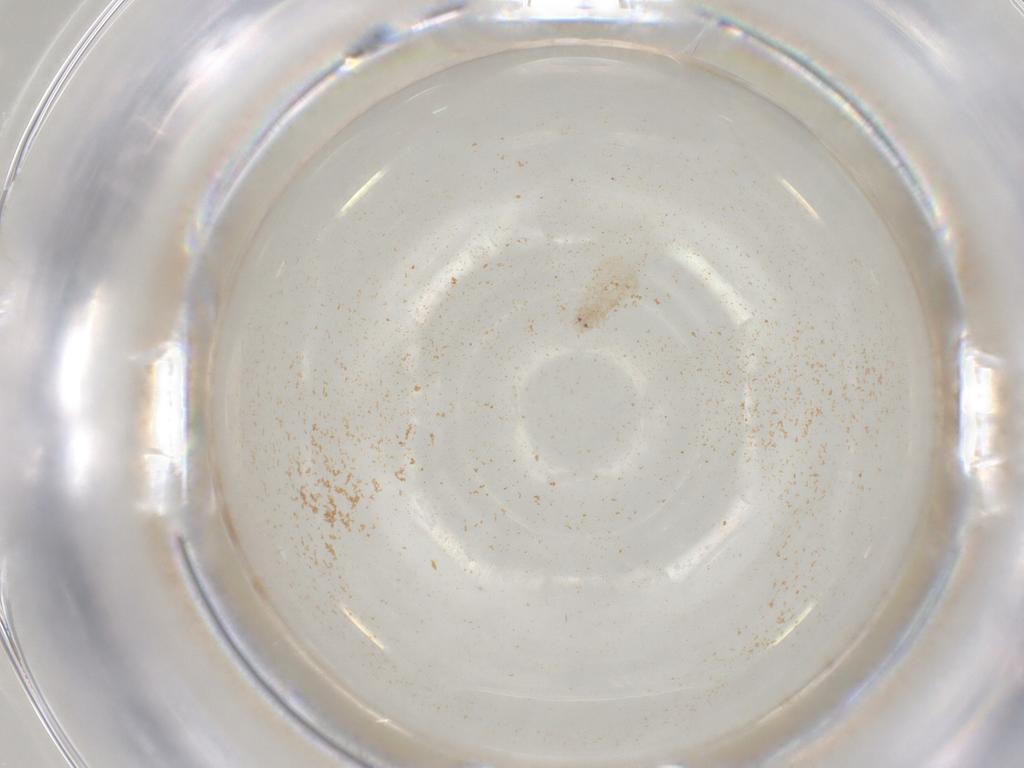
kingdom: Animalia
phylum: Arthropoda
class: Insecta
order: Hemiptera
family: Aleyrodidae
